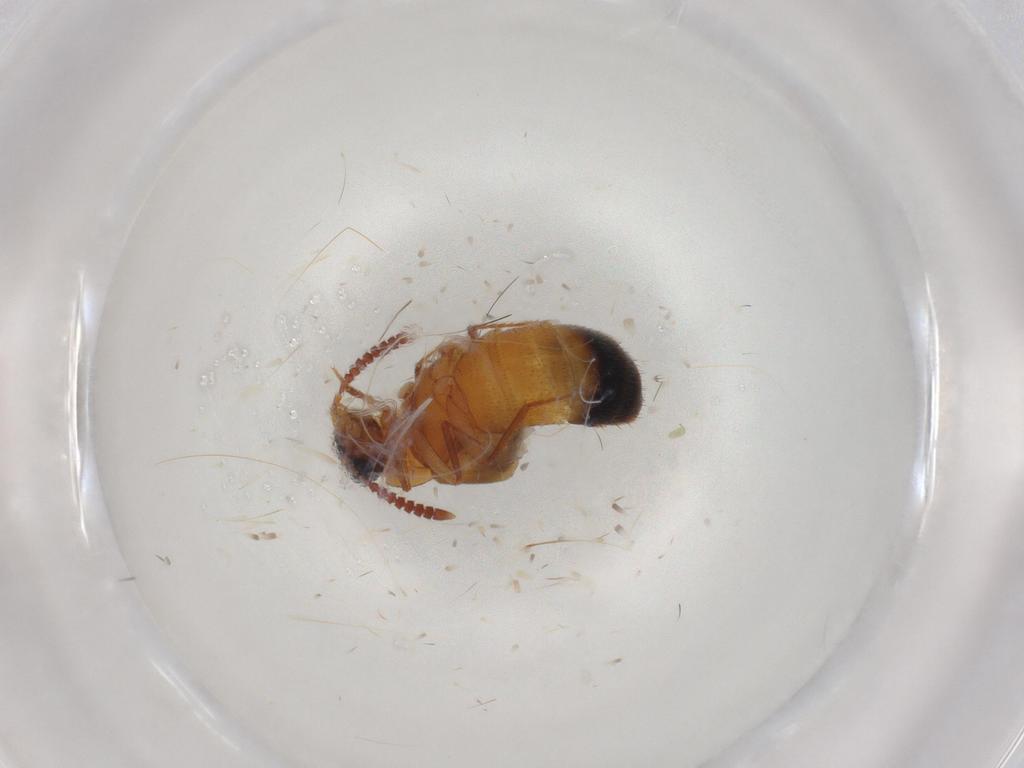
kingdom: Animalia
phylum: Arthropoda
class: Insecta
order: Coleoptera
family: Staphylinidae
